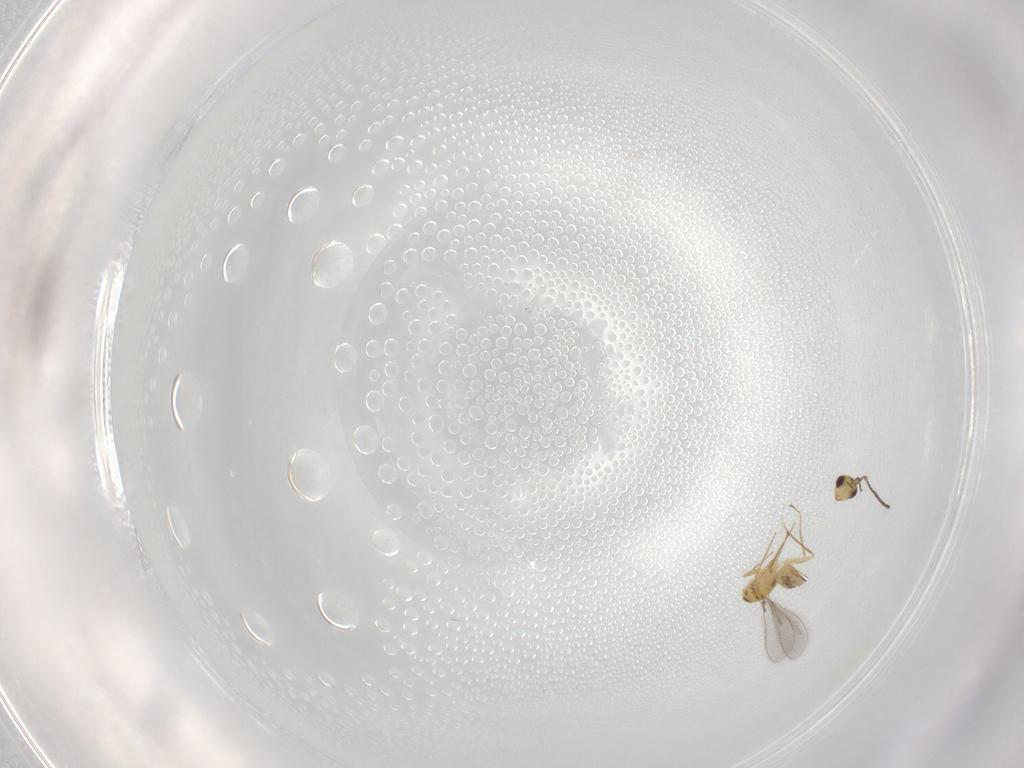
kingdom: Animalia
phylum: Arthropoda
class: Insecta
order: Hymenoptera
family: Mymaridae
